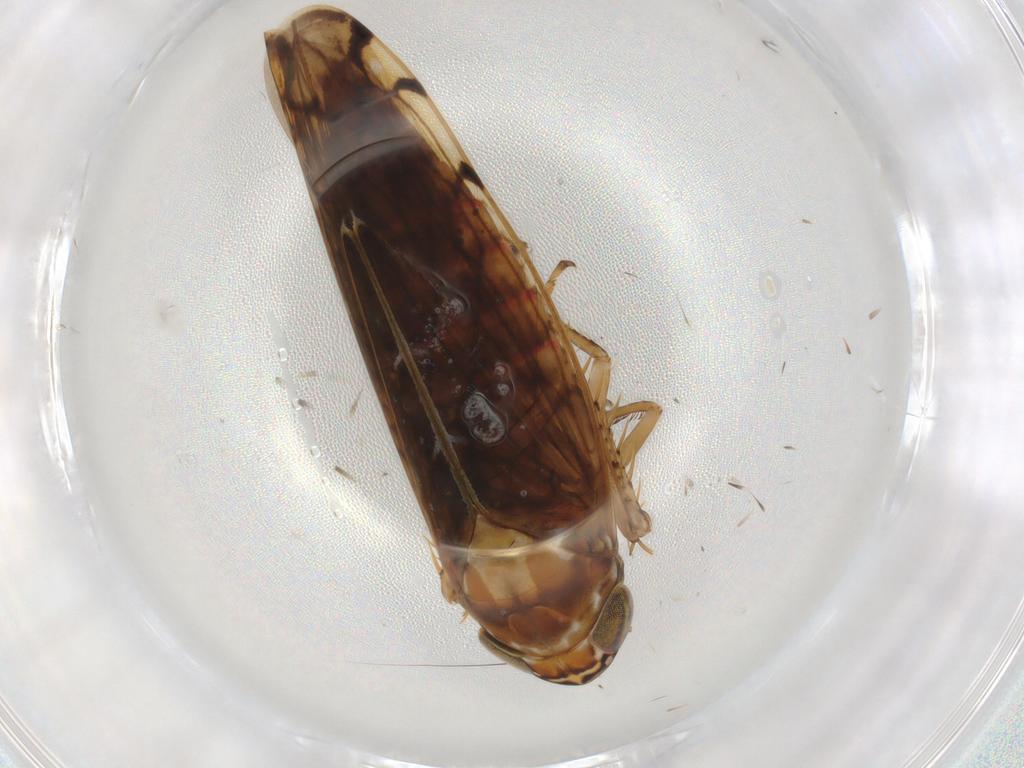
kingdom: Animalia
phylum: Arthropoda
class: Insecta
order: Hemiptera
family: Cicadellidae
